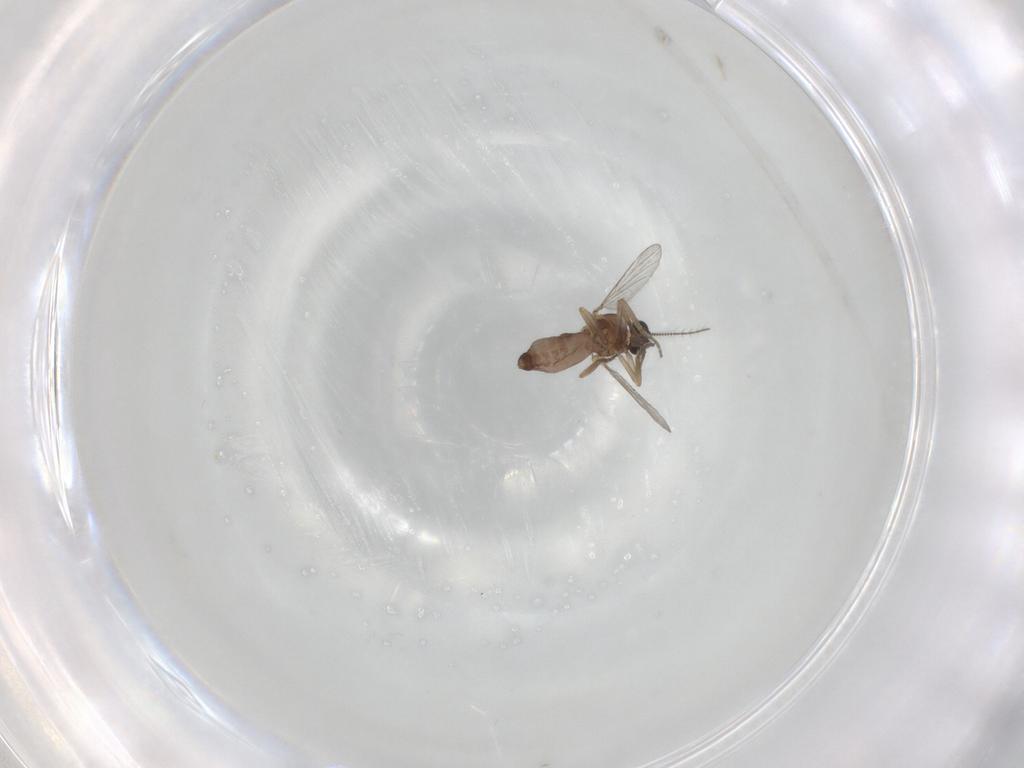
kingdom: Animalia
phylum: Arthropoda
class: Insecta
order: Diptera
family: Cecidomyiidae
